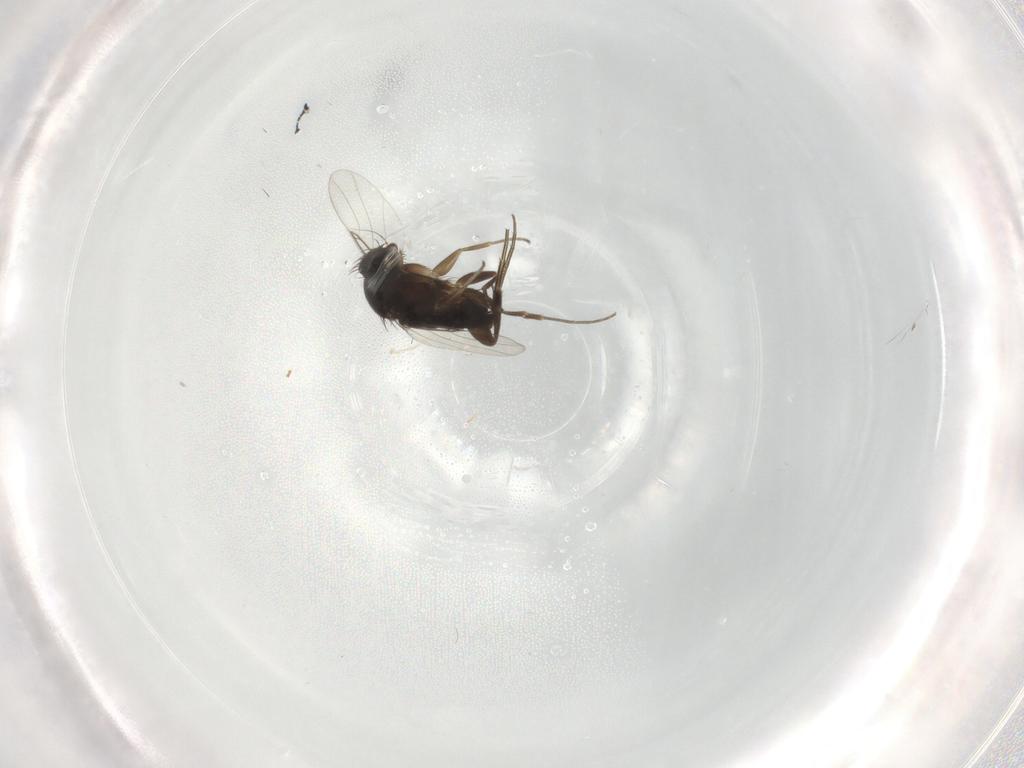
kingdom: Animalia
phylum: Arthropoda
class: Insecta
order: Diptera
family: Phoridae
